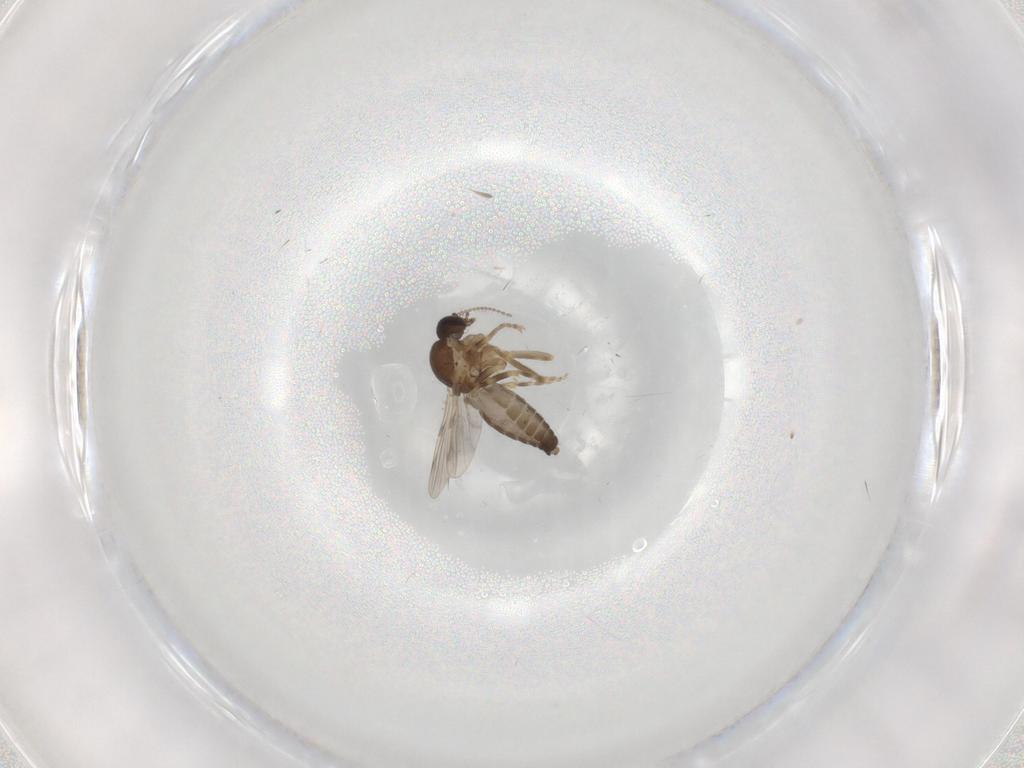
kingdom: Animalia
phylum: Arthropoda
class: Insecta
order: Diptera
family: Ceratopogonidae
